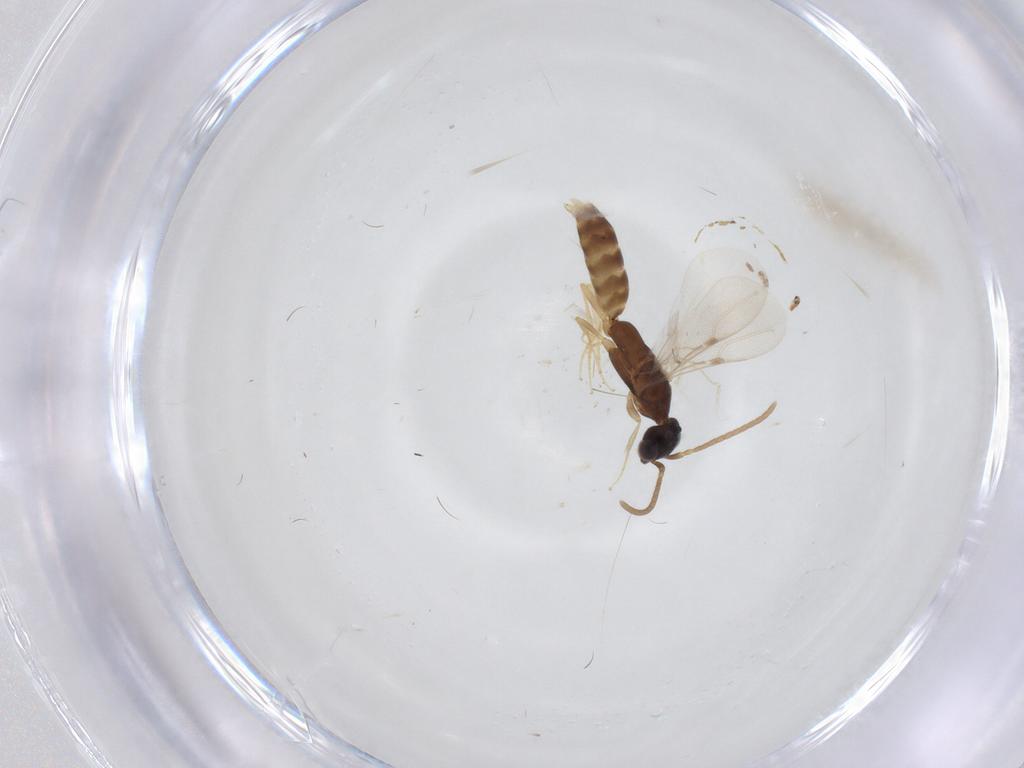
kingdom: Animalia
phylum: Arthropoda
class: Insecta
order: Hymenoptera
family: Bethylidae
